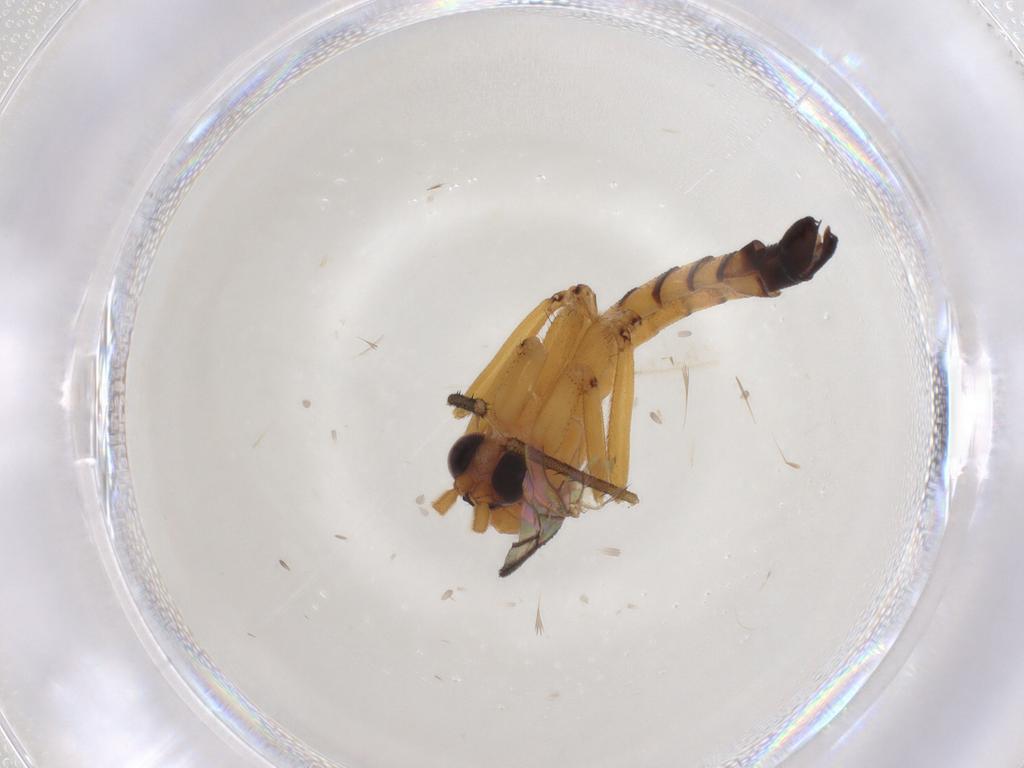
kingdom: Animalia
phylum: Arthropoda
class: Insecta
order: Diptera
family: Mycetophilidae
